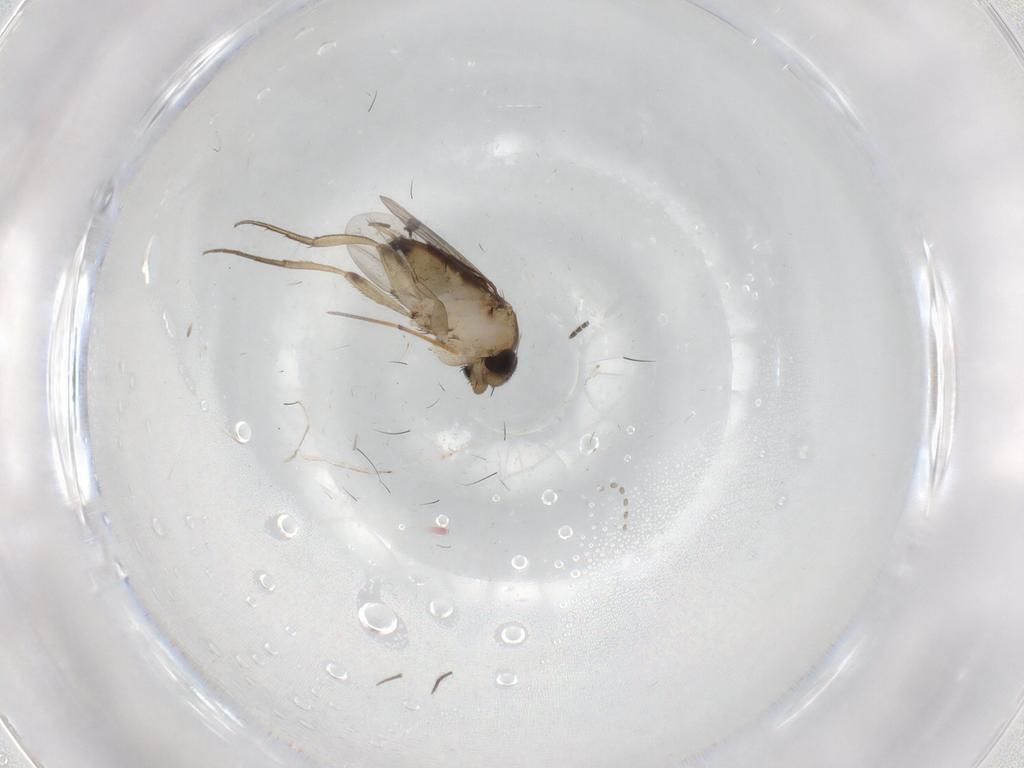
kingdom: Animalia
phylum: Arthropoda
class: Insecta
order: Diptera
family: Phoridae
